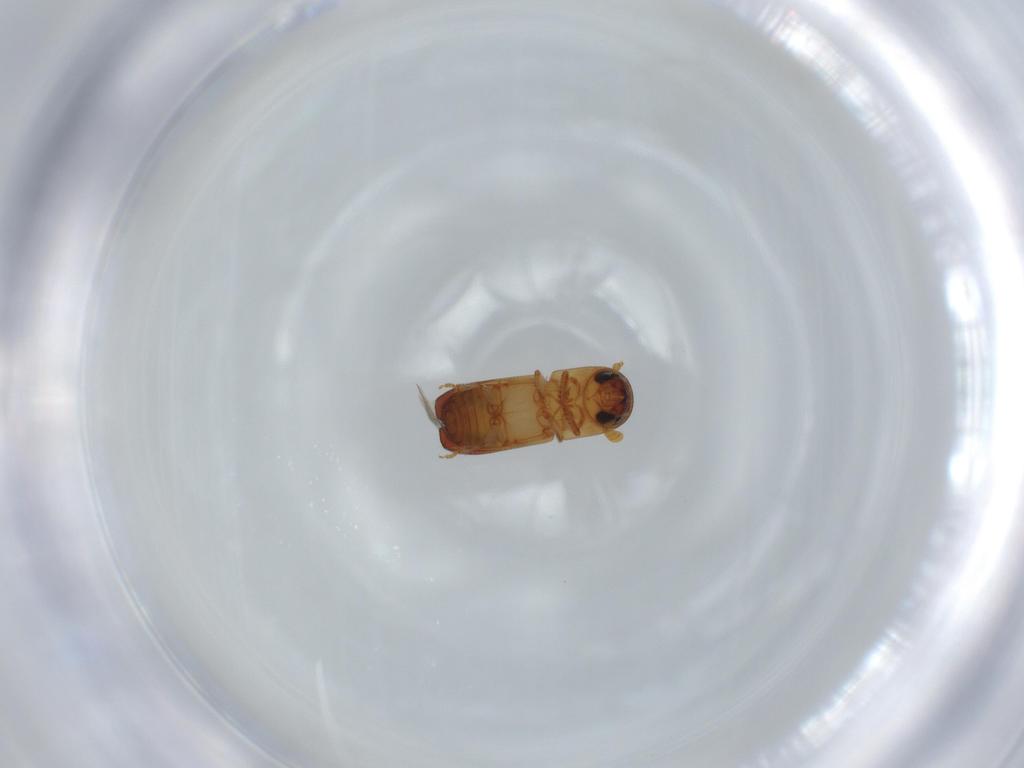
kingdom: Animalia
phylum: Arthropoda
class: Insecta
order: Coleoptera
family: Curculionidae
